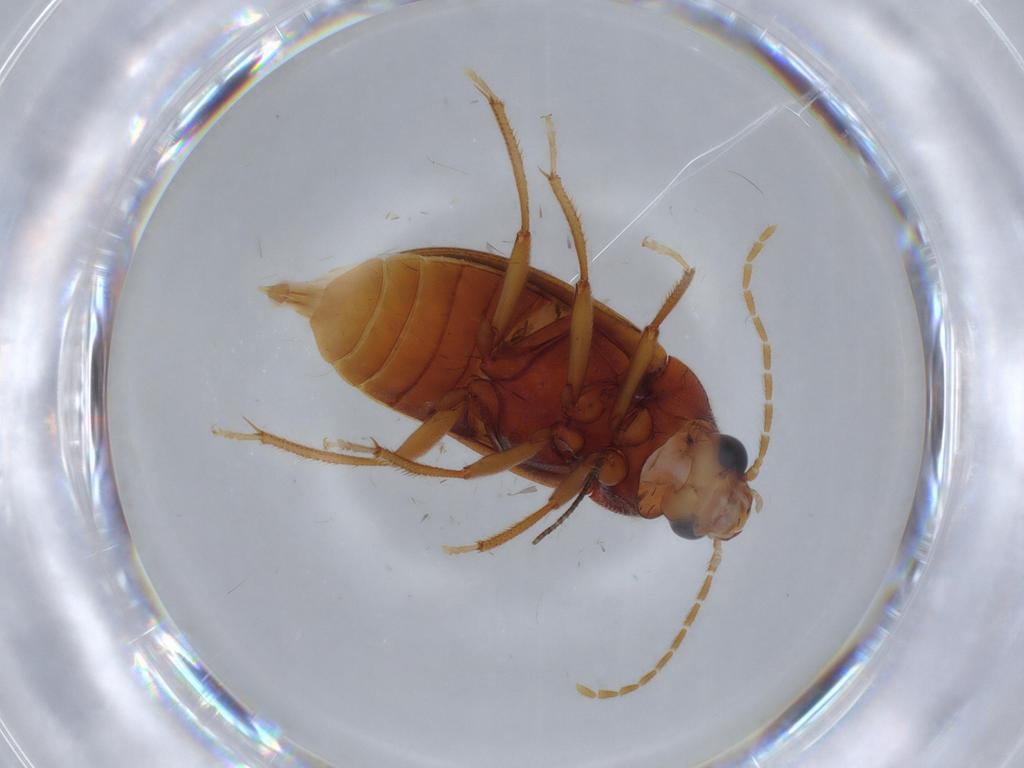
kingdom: Animalia
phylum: Arthropoda
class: Insecta
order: Coleoptera
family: Ptilodactylidae
